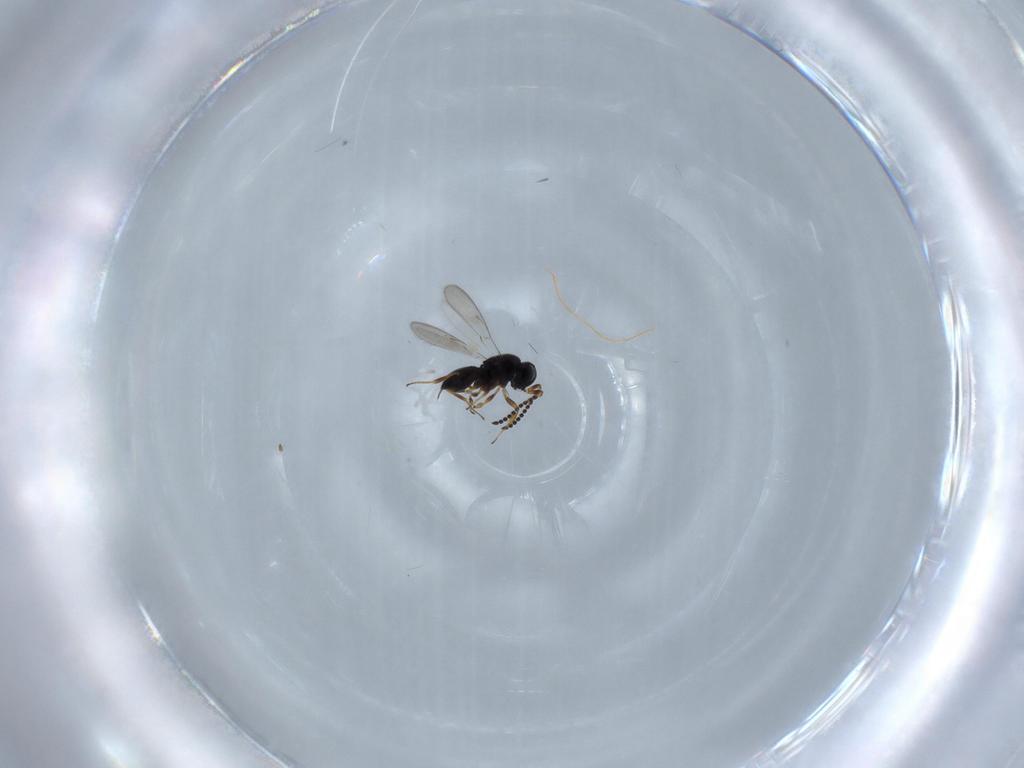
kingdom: Animalia
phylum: Arthropoda
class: Insecta
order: Hymenoptera
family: Scelionidae
